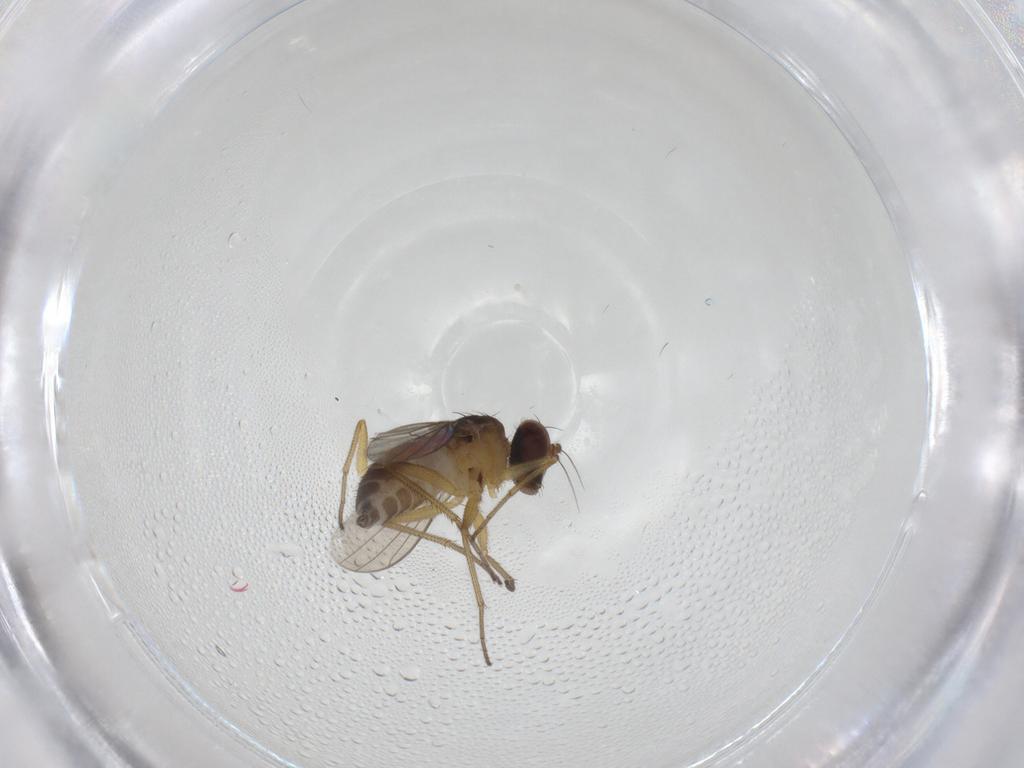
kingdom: Animalia
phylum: Arthropoda
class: Insecta
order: Diptera
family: Dolichopodidae
